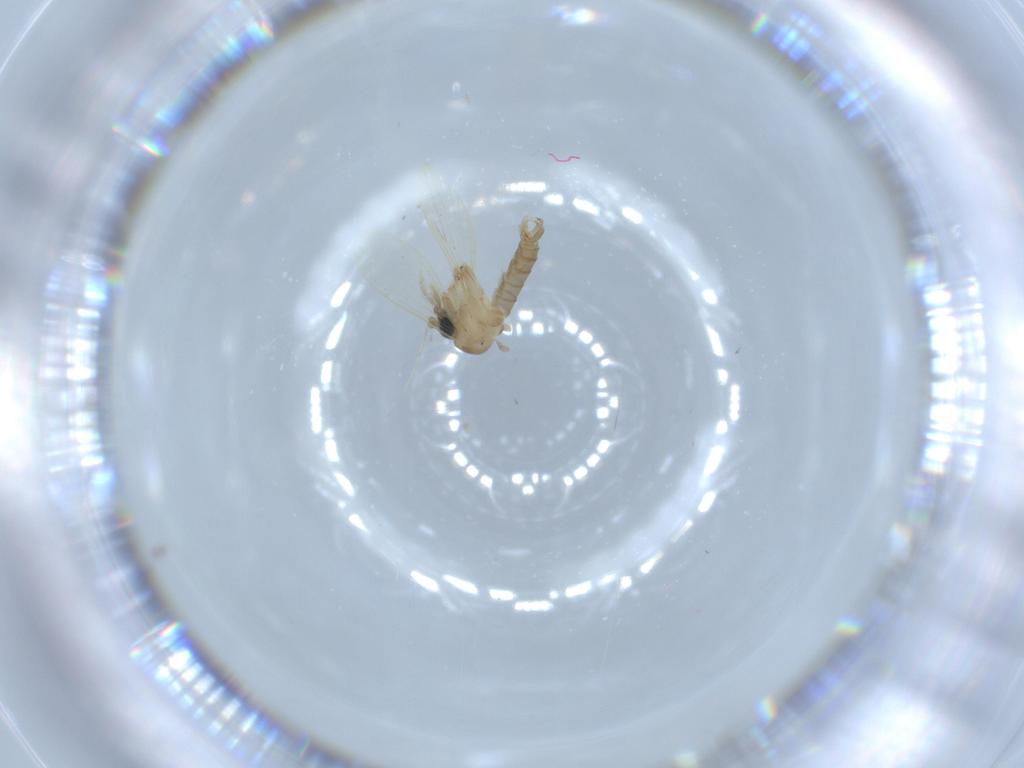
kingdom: Animalia
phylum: Arthropoda
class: Insecta
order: Diptera
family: Psychodidae
